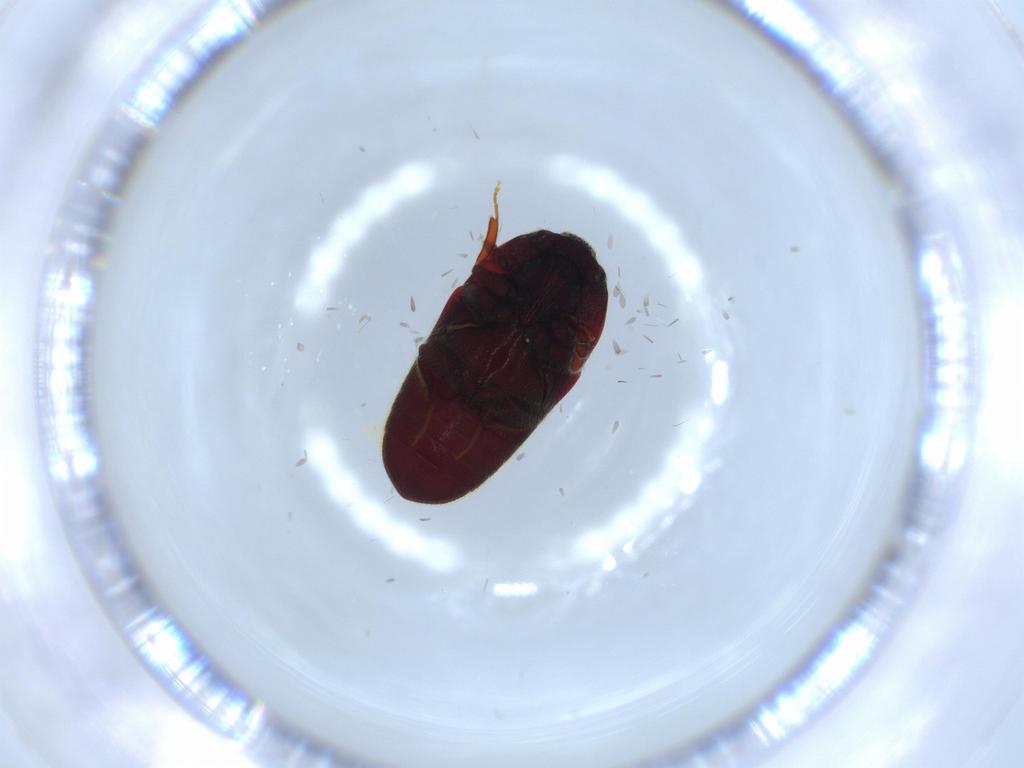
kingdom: Animalia
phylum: Arthropoda
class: Insecta
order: Coleoptera
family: Throscidae
